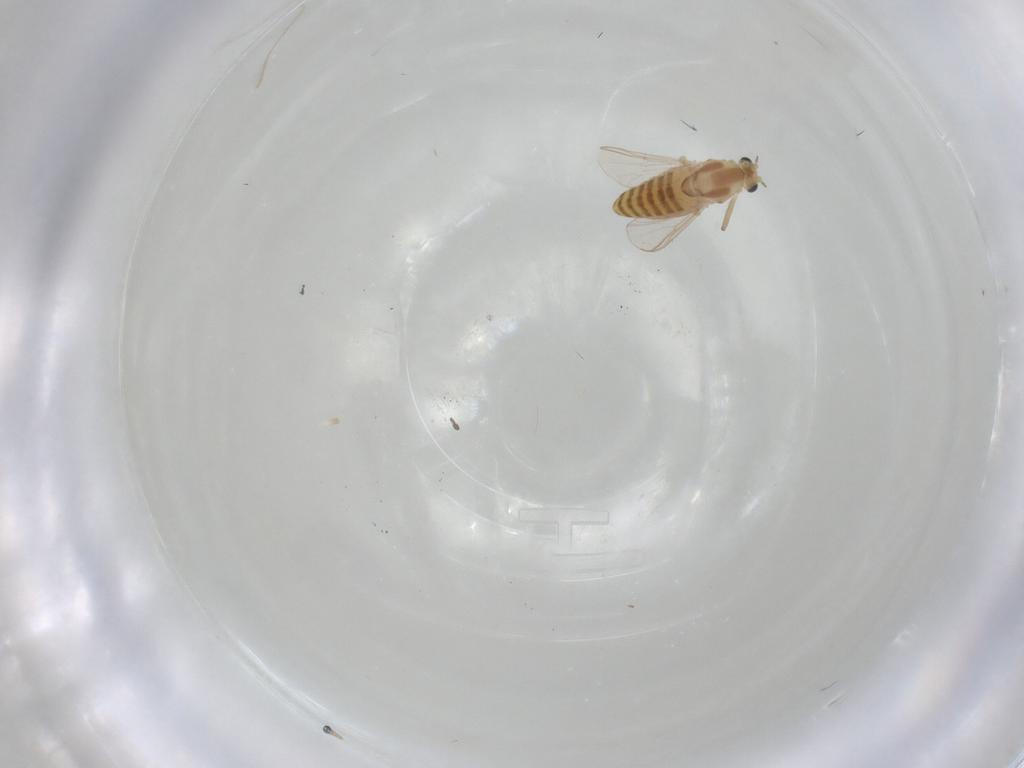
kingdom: Animalia
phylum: Arthropoda
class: Insecta
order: Diptera
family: Chironomidae
